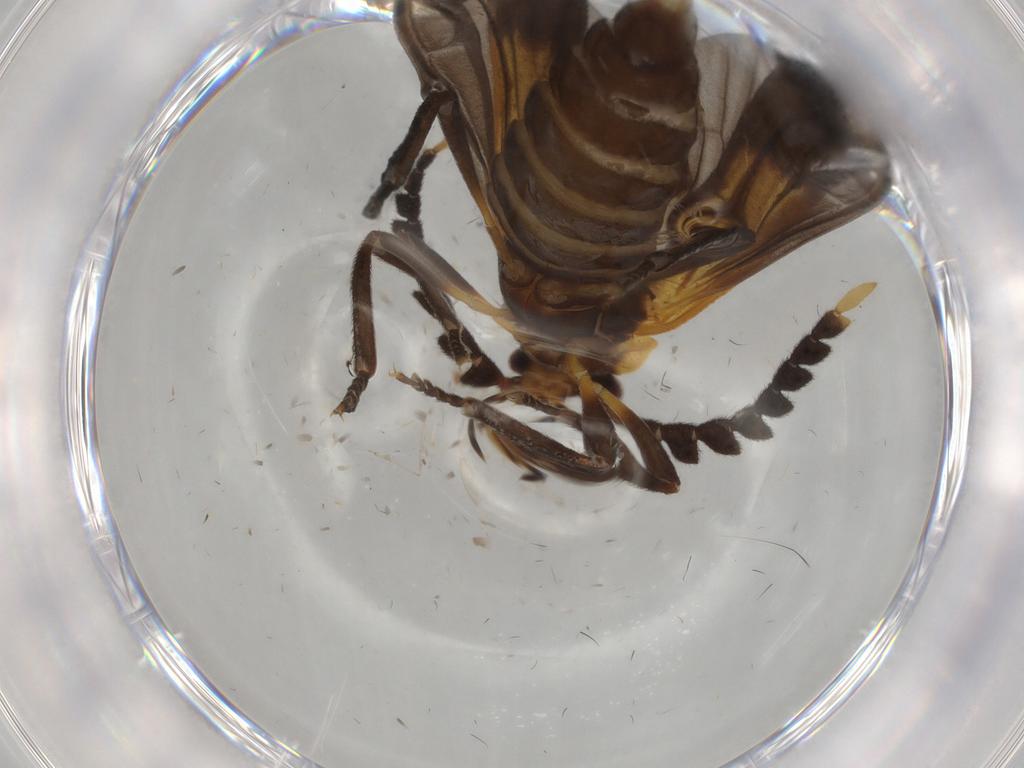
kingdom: Animalia
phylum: Arthropoda
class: Insecta
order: Coleoptera
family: Lycidae
